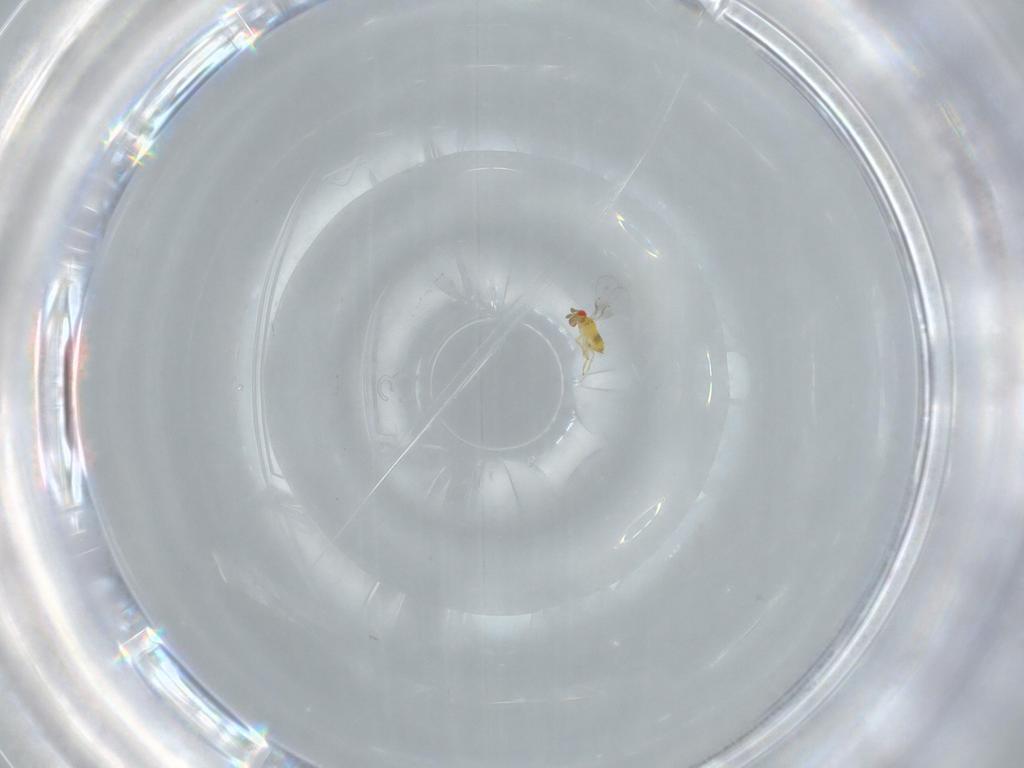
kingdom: Animalia
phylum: Arthropoda
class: Insecta
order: Hymenoptera
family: Trichogrammatidae
